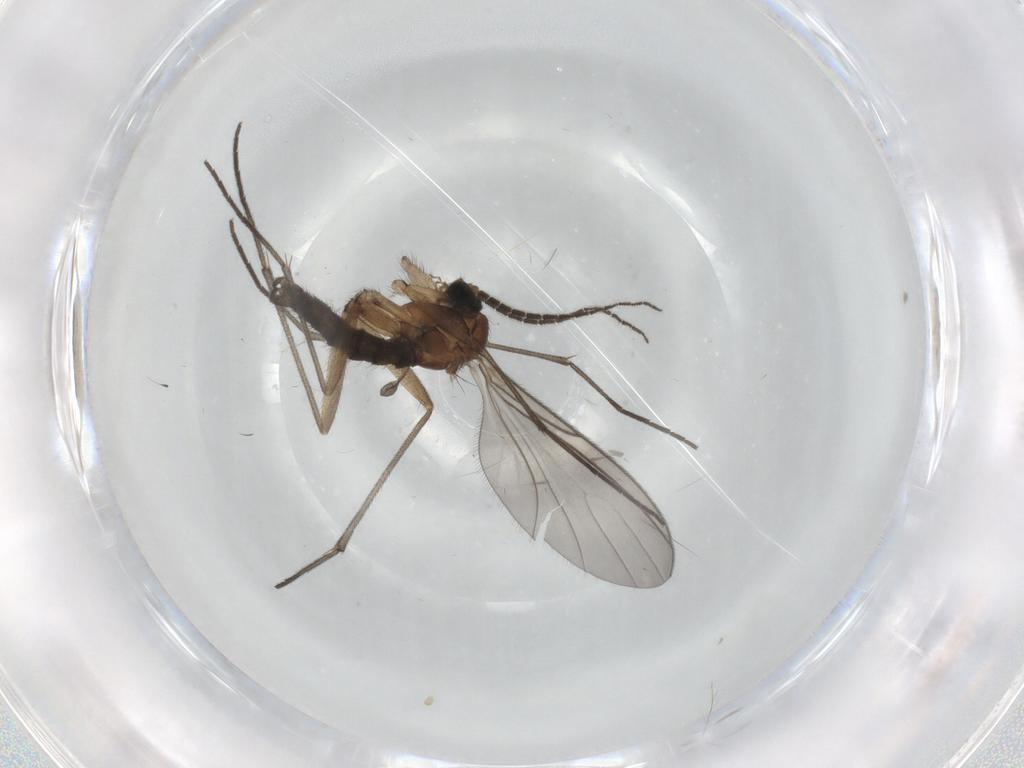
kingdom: Animalia
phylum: Arthropoda
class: Insecta
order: Diptera
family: Sciaridae
